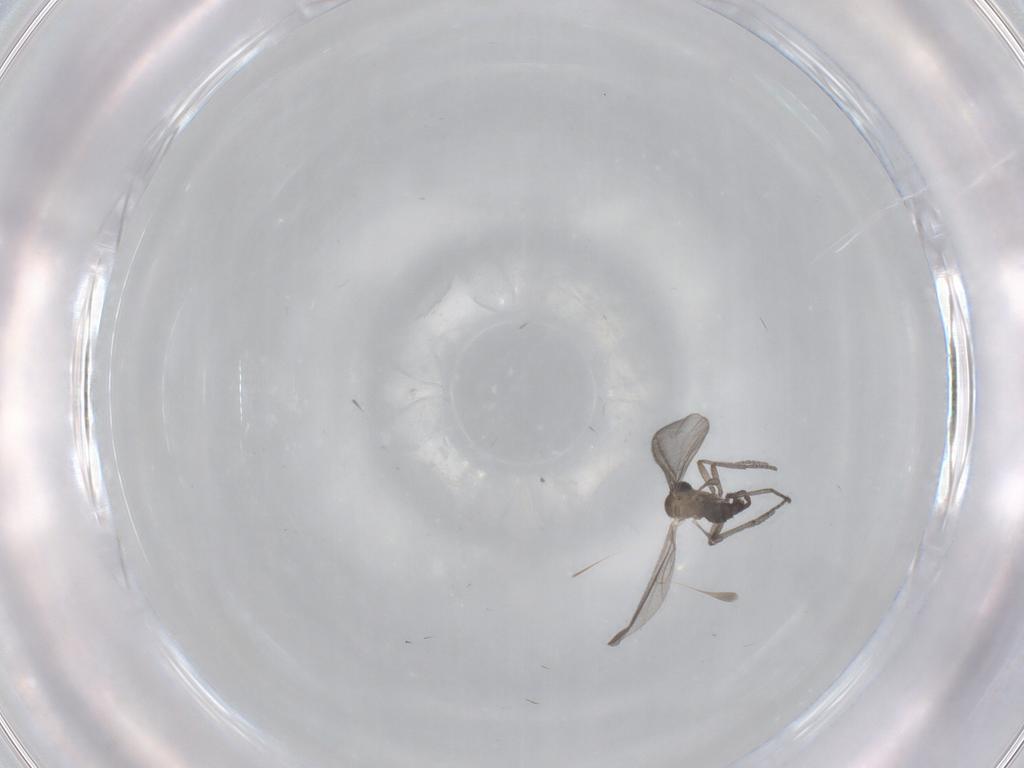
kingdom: Animalia
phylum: Arthropoda
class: Insecta
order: Diptera
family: Sciaridae
